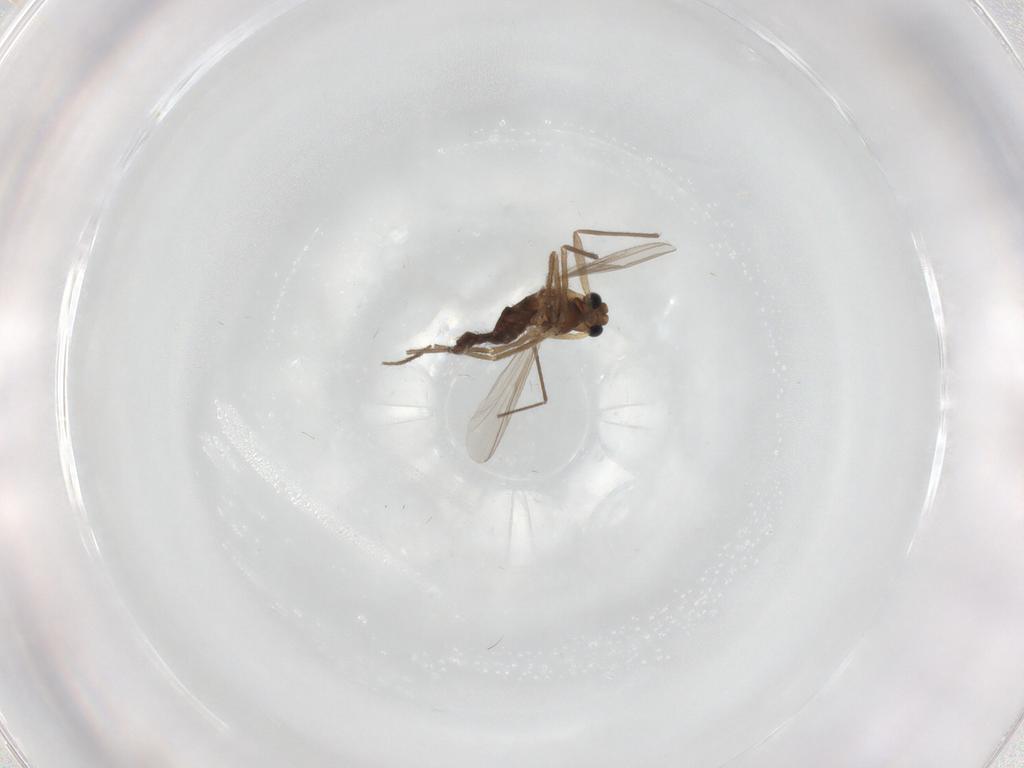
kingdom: Animalia
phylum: Arthropoda
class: Insecta
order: Diptera
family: Chironomidae
